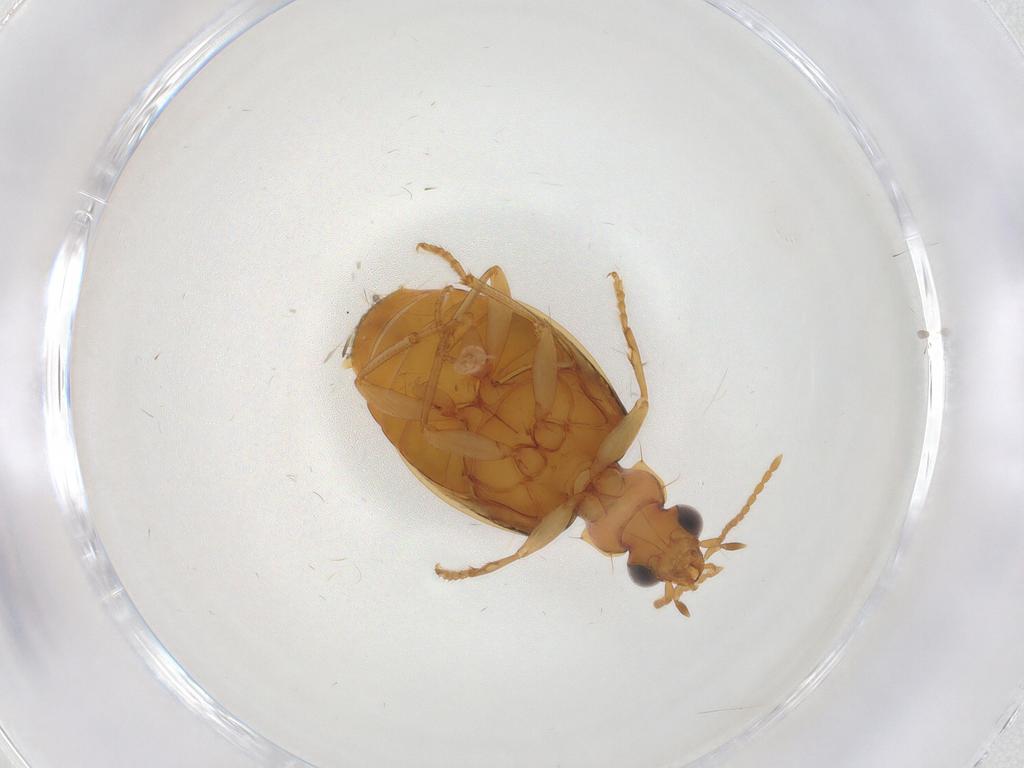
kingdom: Animalia
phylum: Arthropoda
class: Insecta
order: Coleoptera
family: Carabidae
